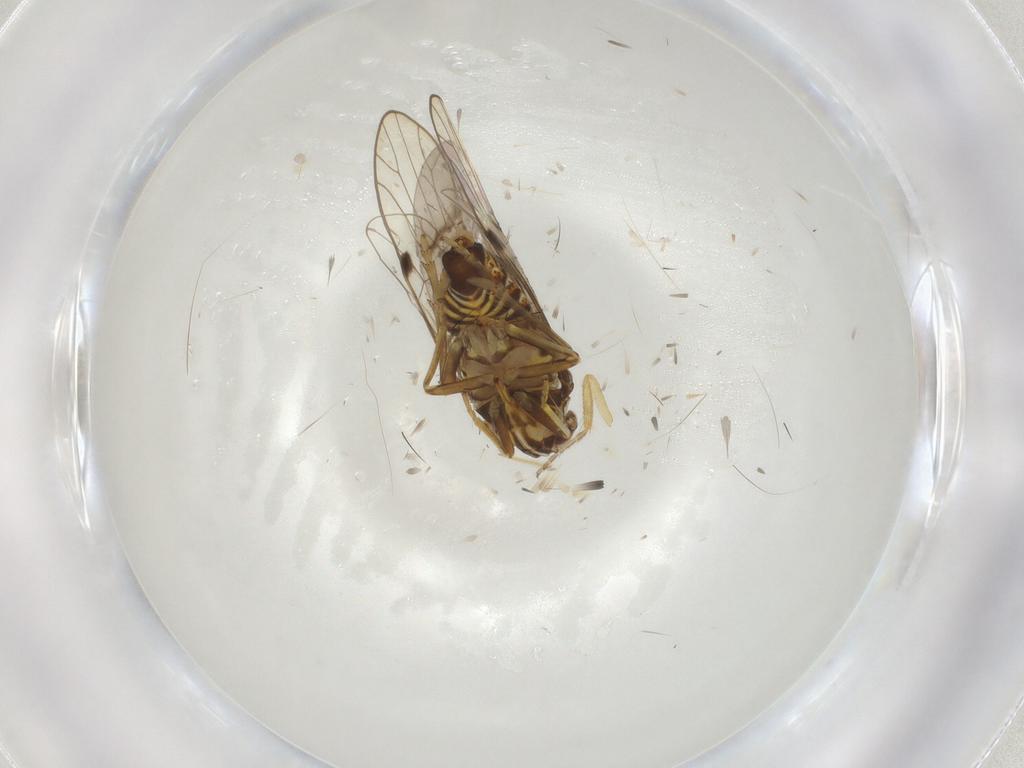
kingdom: Animalia
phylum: Arthropoda
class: Insecta
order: Hemiptera
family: Delphacidae
